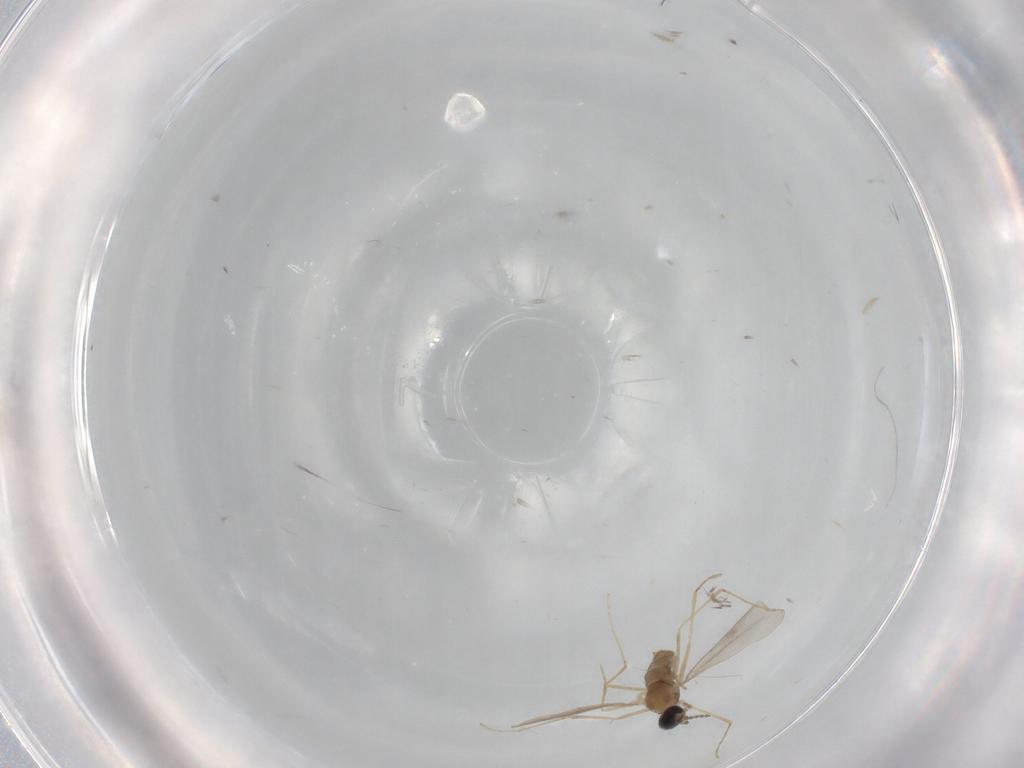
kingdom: Animalia
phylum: Arthropoda
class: Insecta
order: Diptera
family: Cecidomyiidae
